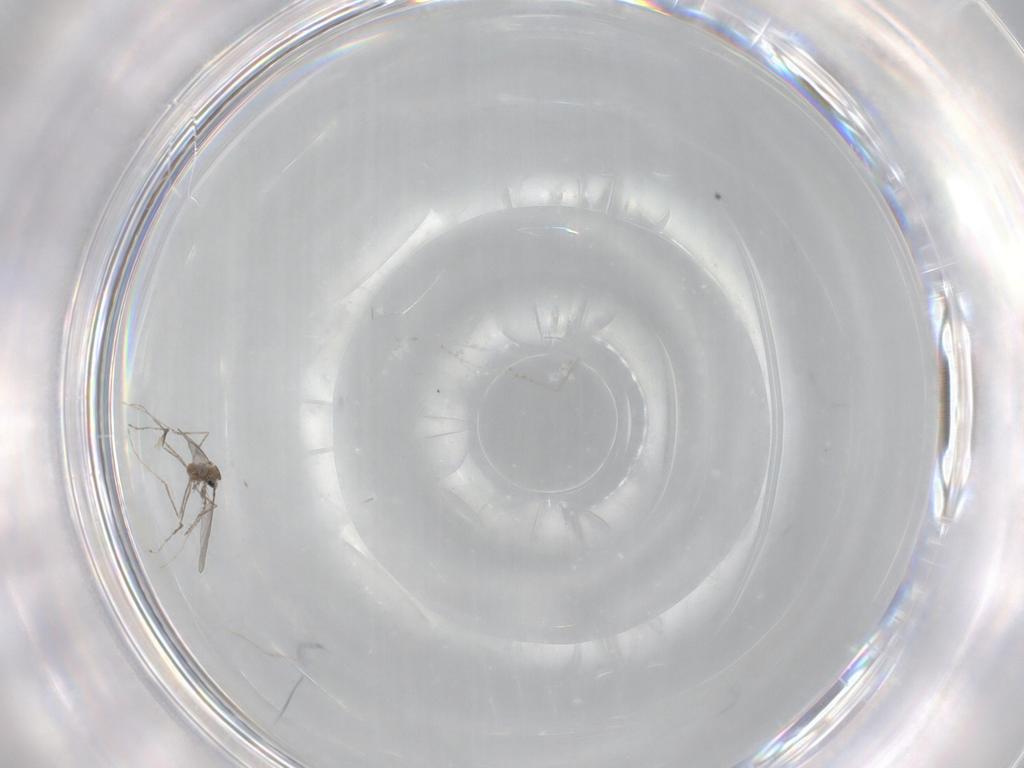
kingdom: Animalia
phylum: Arthropoda
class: Insecta
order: Diptera
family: Cecidomyiidae
